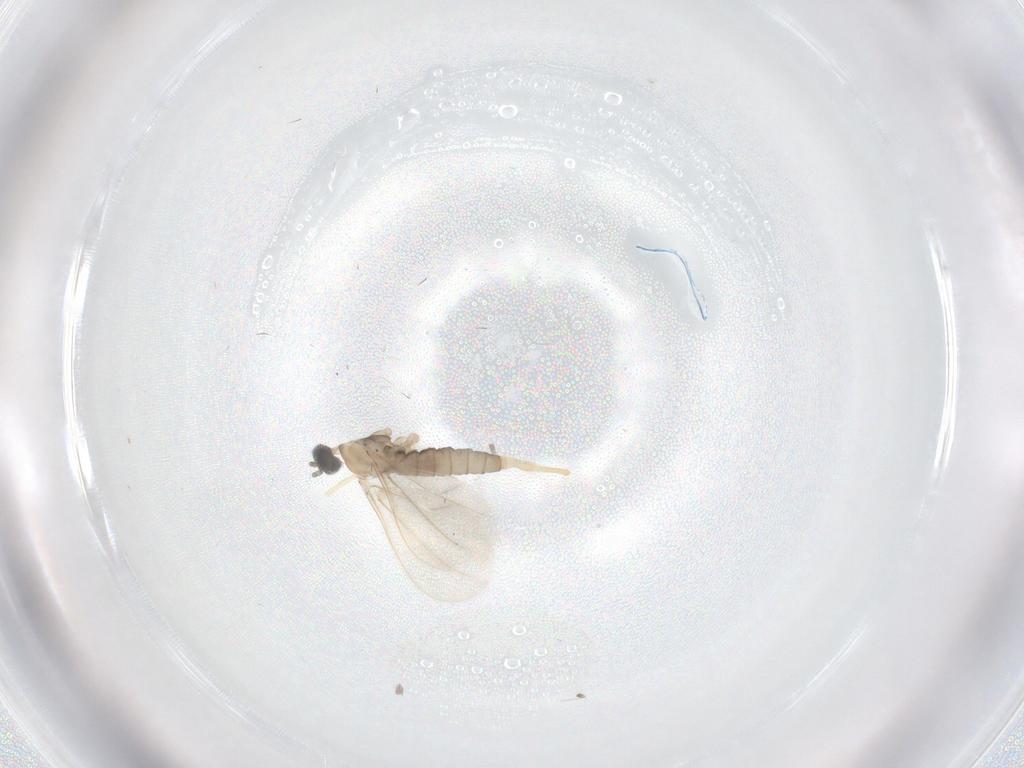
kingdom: Animalia
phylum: Arthropoda
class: Insecta
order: Diptera
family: Cecidomyiidae
